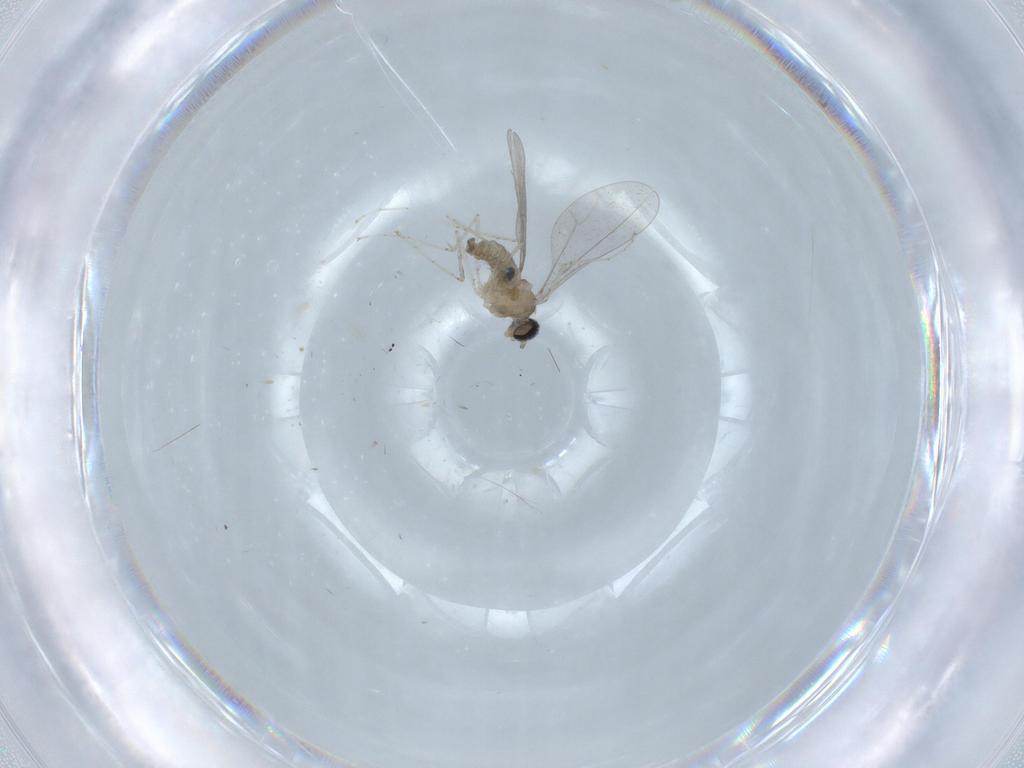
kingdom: Animalia
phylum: Arthropoda
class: Insecta
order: Diptera
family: Cecidomyiidae
